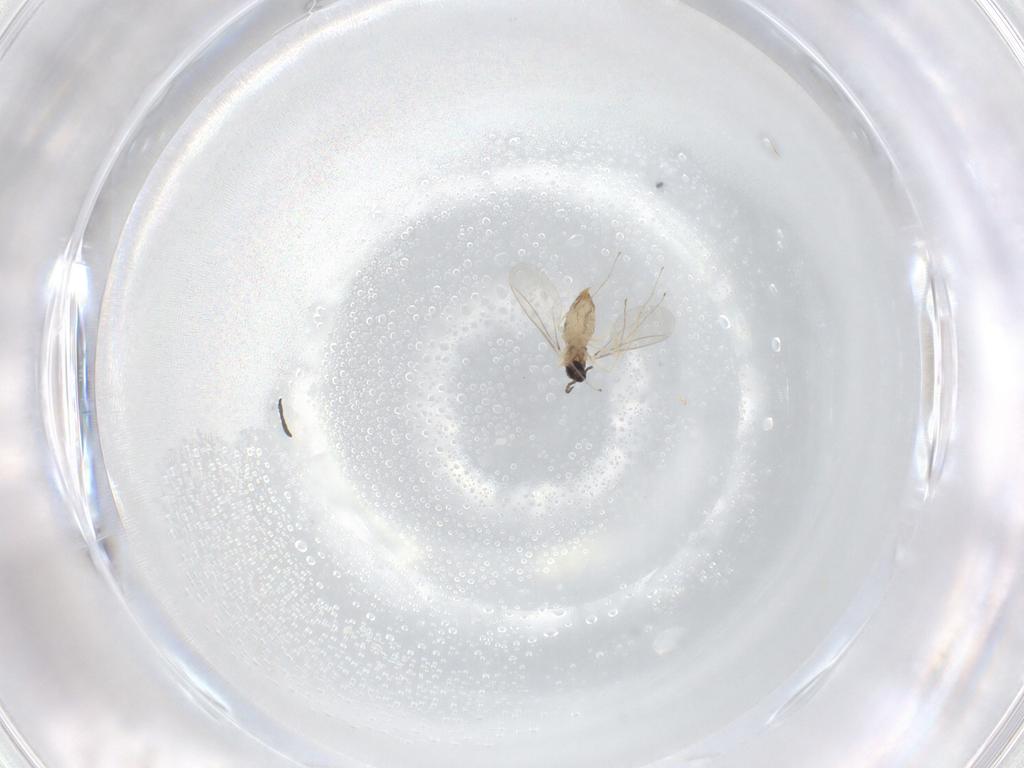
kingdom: Animalia
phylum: Arthropoda
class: Insecta
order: Diptera
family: Cecidomyiidae
